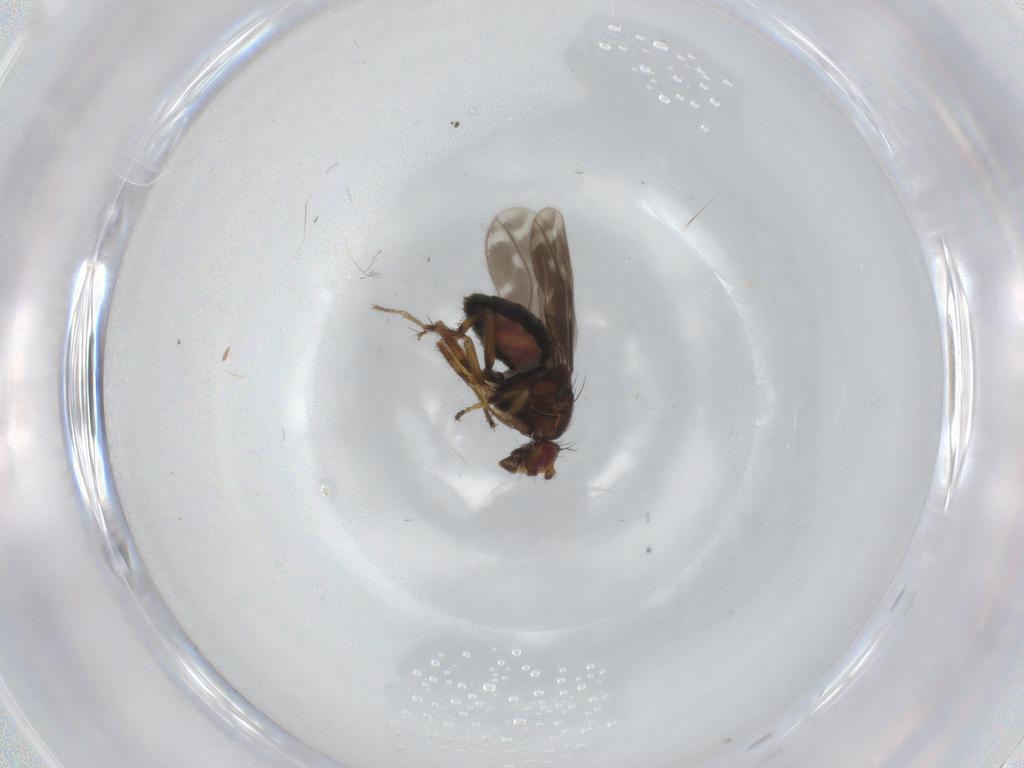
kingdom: Animalia
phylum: Arthropoda
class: Insecta
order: Diptera
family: Sphaeroceridae
